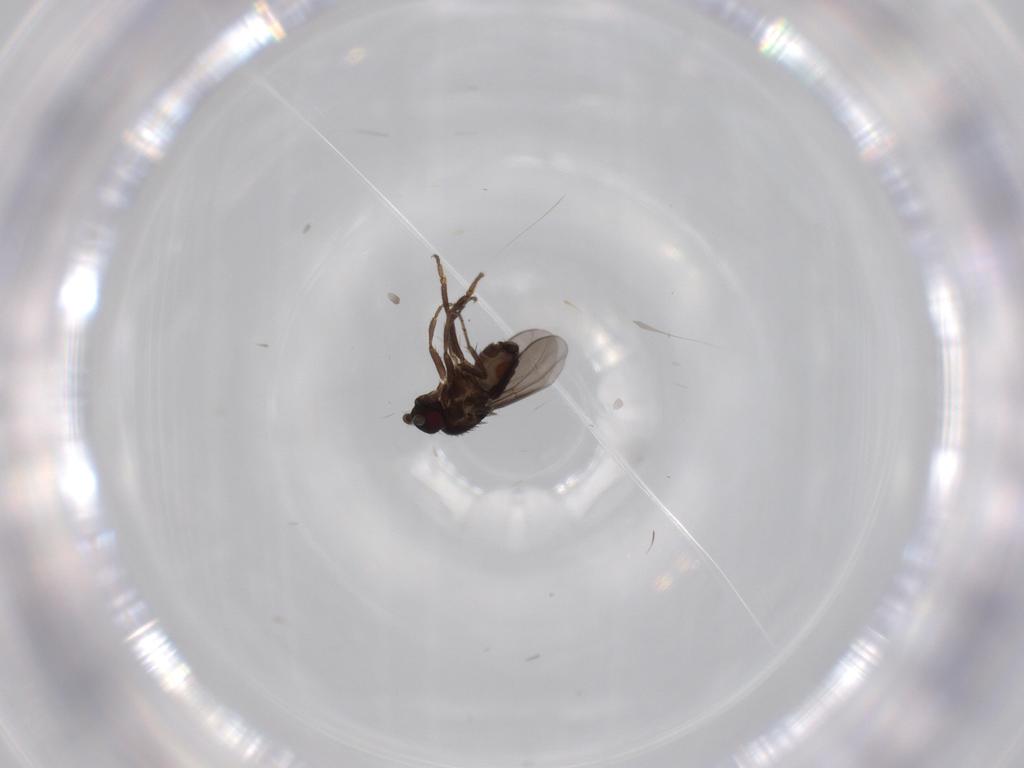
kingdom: Animalia
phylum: Arthropoda
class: Insecta
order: Diptera
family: Sphaeroceridae
